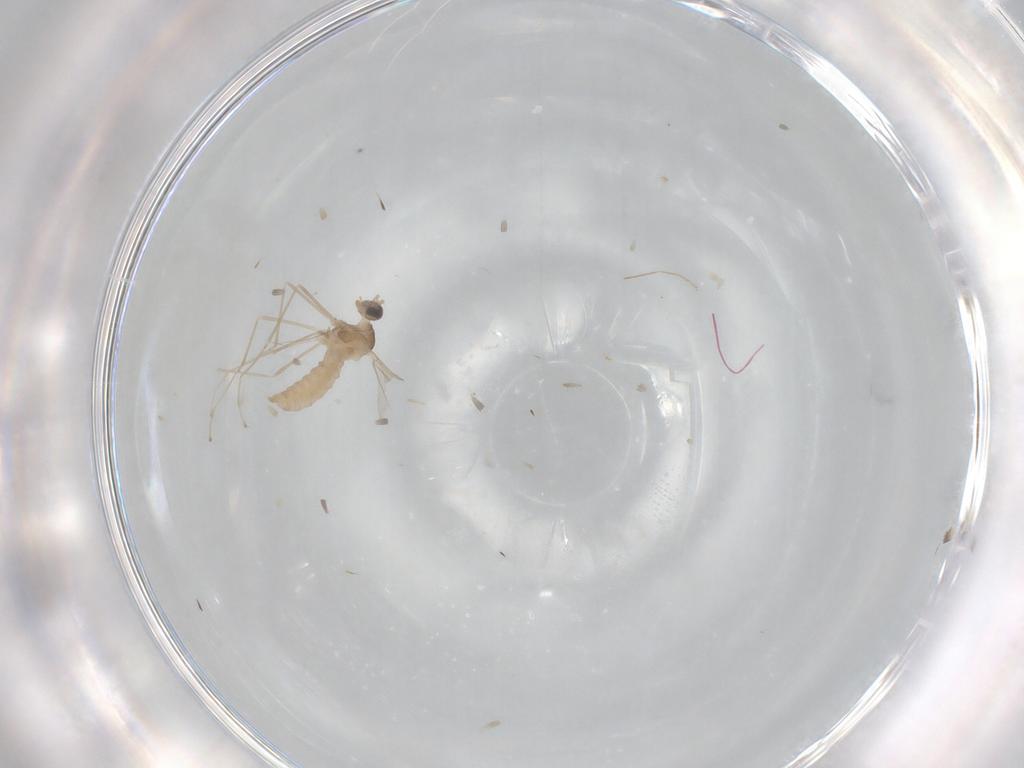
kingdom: Animalia
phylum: Arthropoda
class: Insecta
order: Diptera
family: Cecidomyiidae
